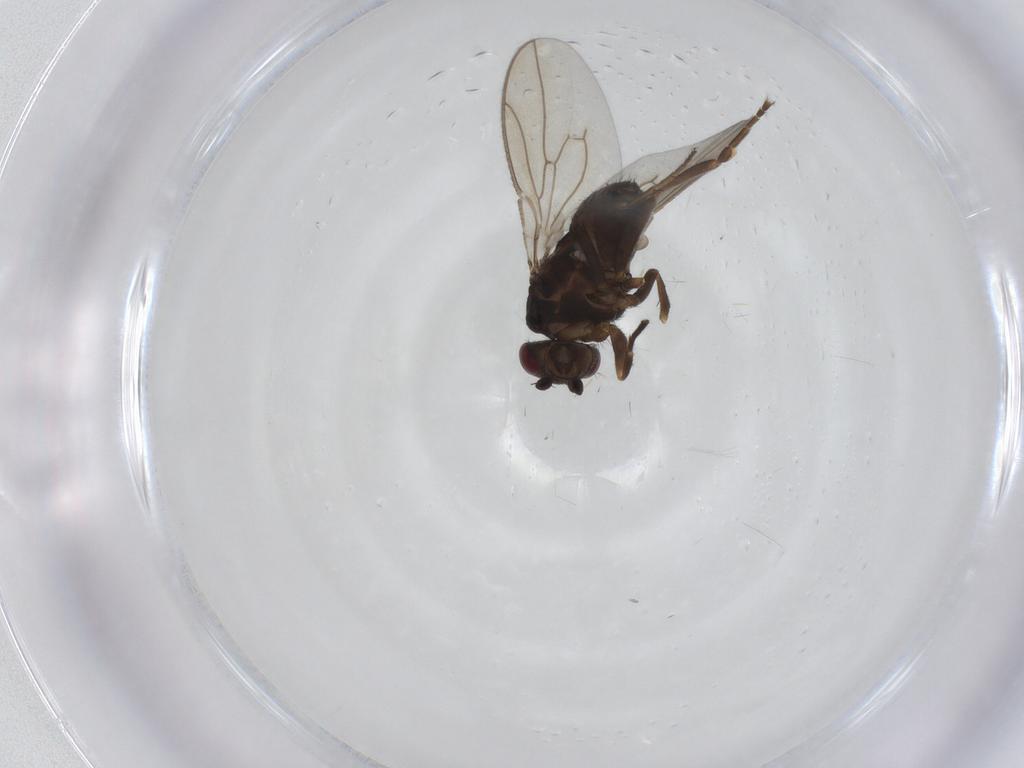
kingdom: Animalia
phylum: Arthropoda
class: Insecta
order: Diptera
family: Sphaeroceridae
